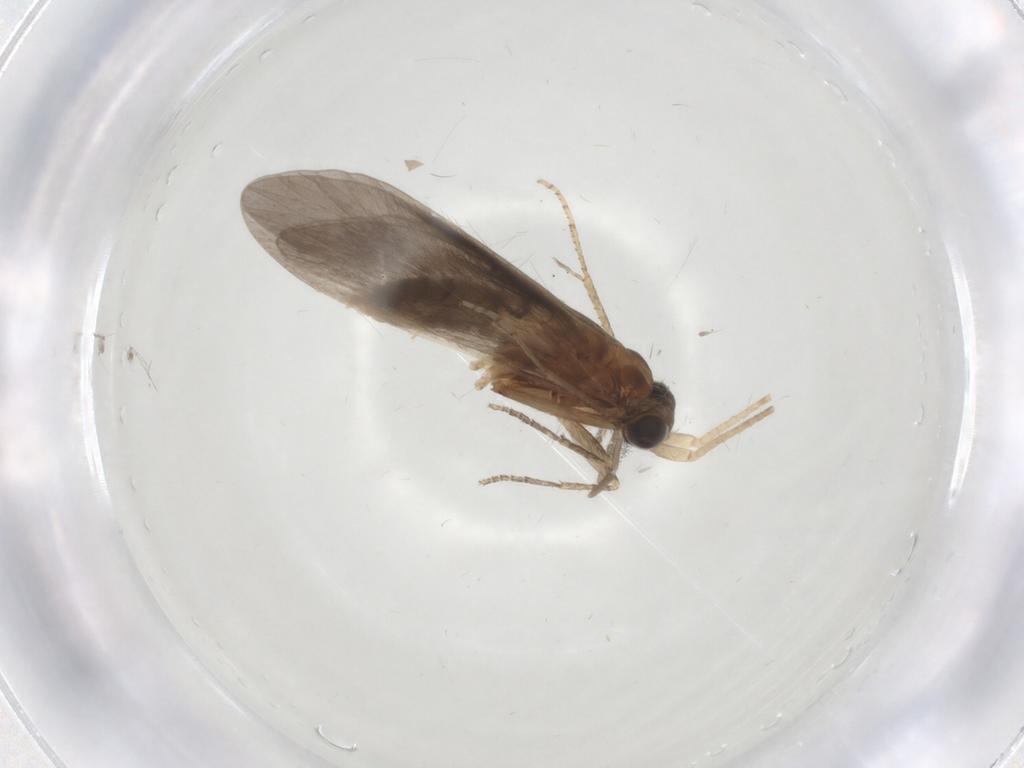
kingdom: Animalia
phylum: Arthropoda
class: Insecta
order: Trichoptera
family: Helicopsychidae
